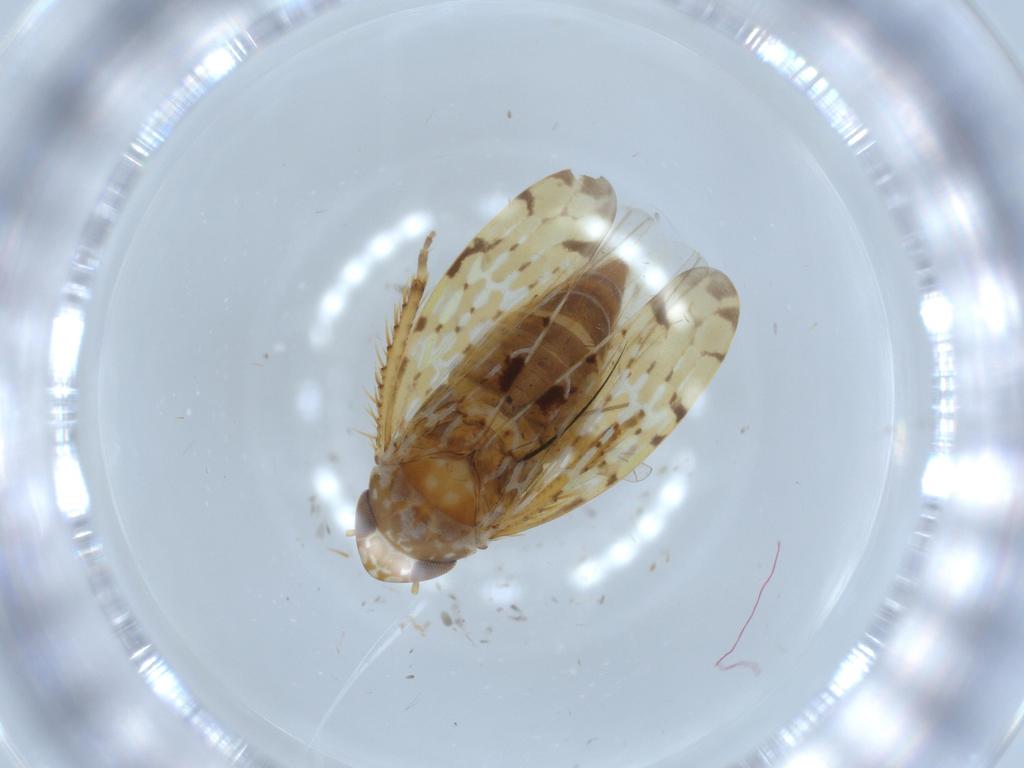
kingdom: Animalia
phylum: Arthropoda
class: Insecta
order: Hemiptera
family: Cicadellidae
